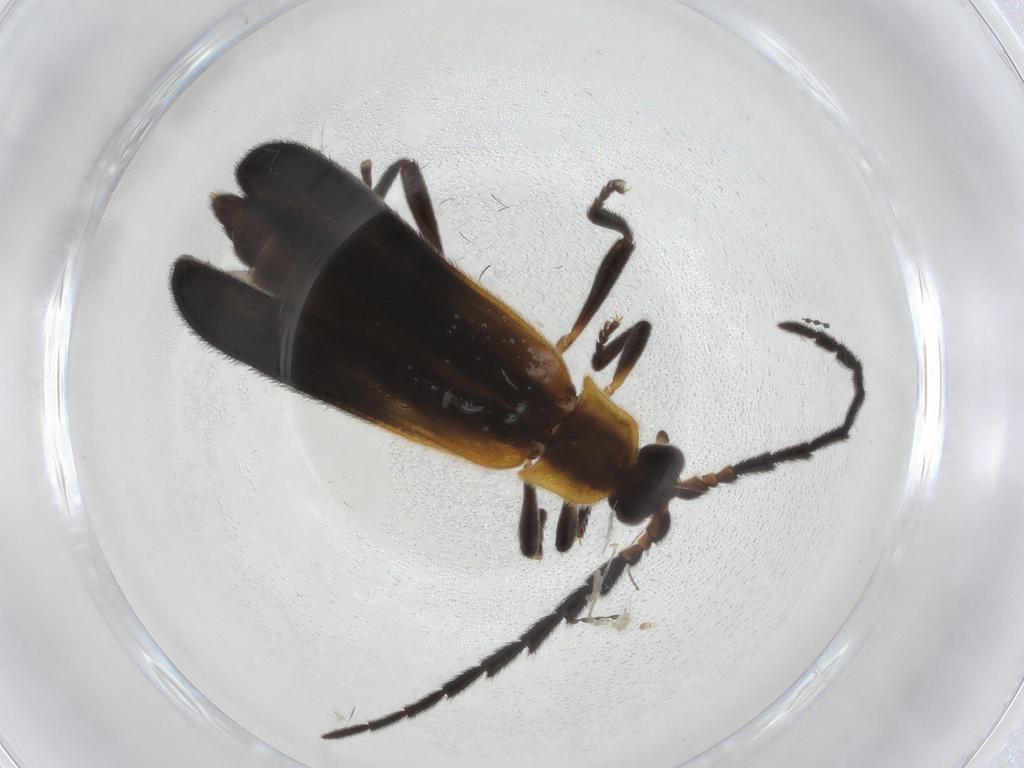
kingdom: Animalia
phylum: Arthropoda
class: Insecta
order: Coleoptera
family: Lycidae
